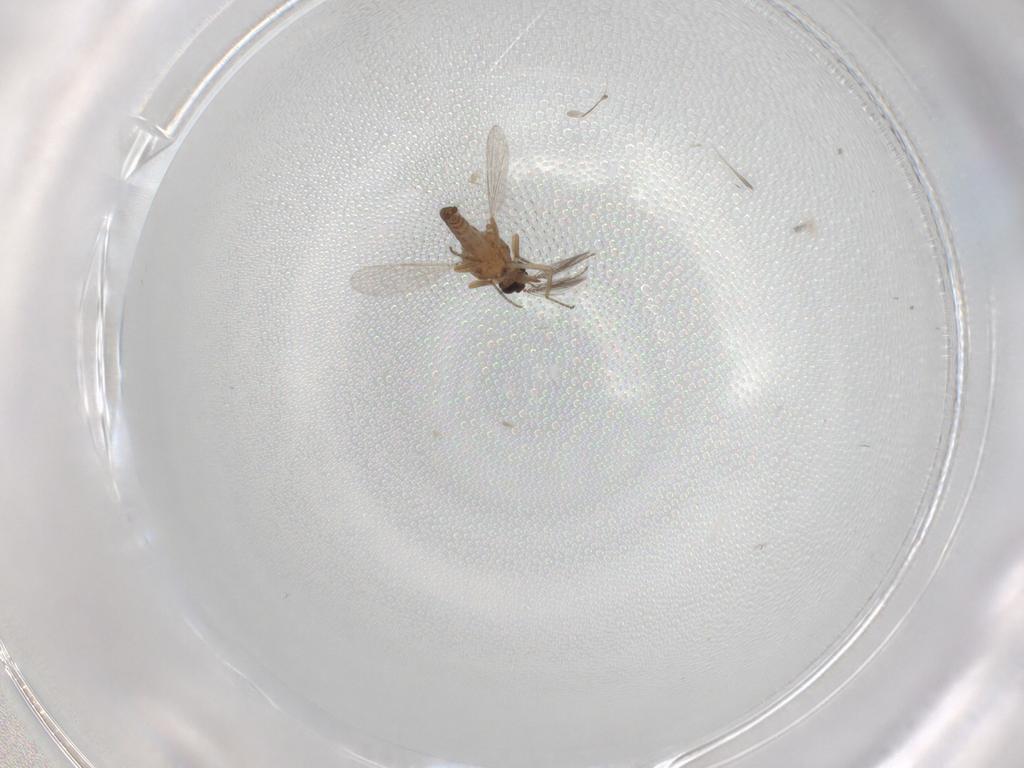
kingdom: Animalia
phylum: Arthropoda
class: Insecta
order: Diptera
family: Ceratopogonidae
